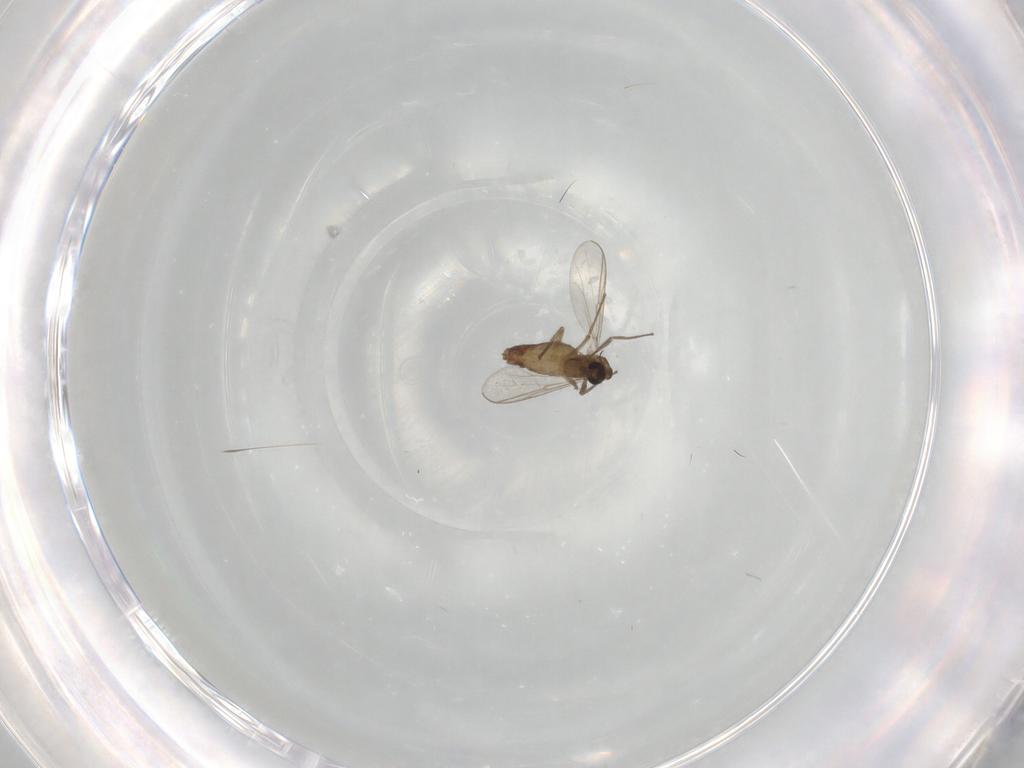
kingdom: Animalia
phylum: Arthropoda
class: Insecta
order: Diptera
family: Chironomidae
